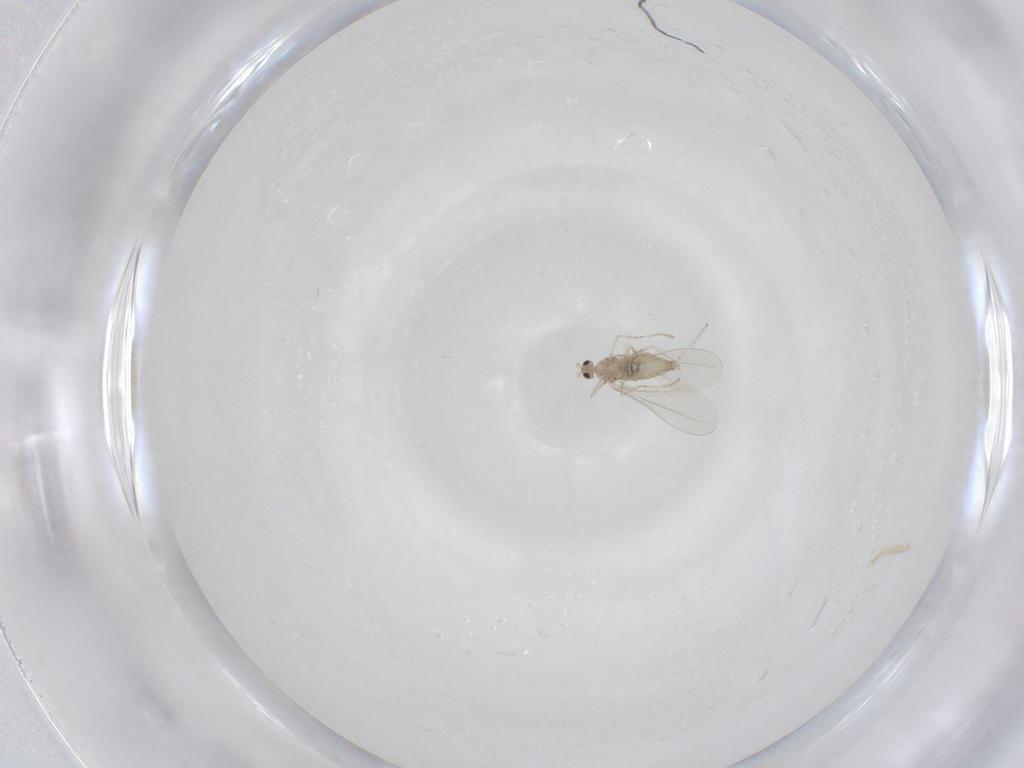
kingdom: Animalia
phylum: Arthropoda
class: Insecta
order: Diptera
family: Cecidomyiidae
